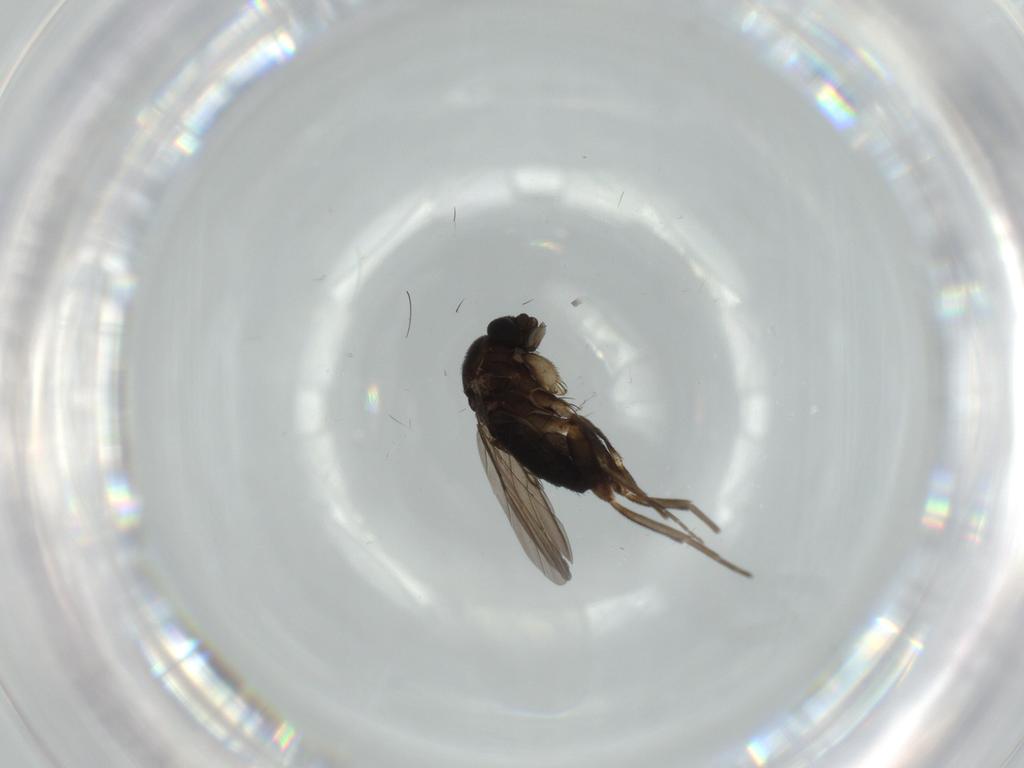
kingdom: Animalia
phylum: Arthropoda
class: Insecta
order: Diptera
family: Phoridae
